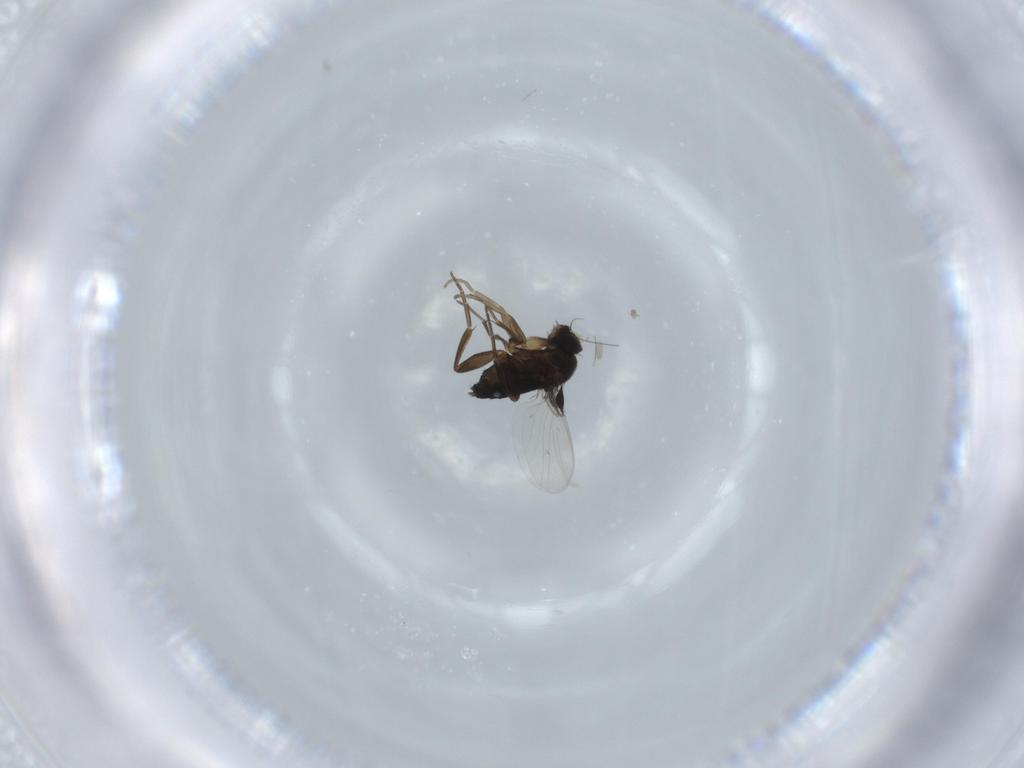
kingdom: Animalia
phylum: Arthropoda
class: Insecta
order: Diptera
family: Phoridae
